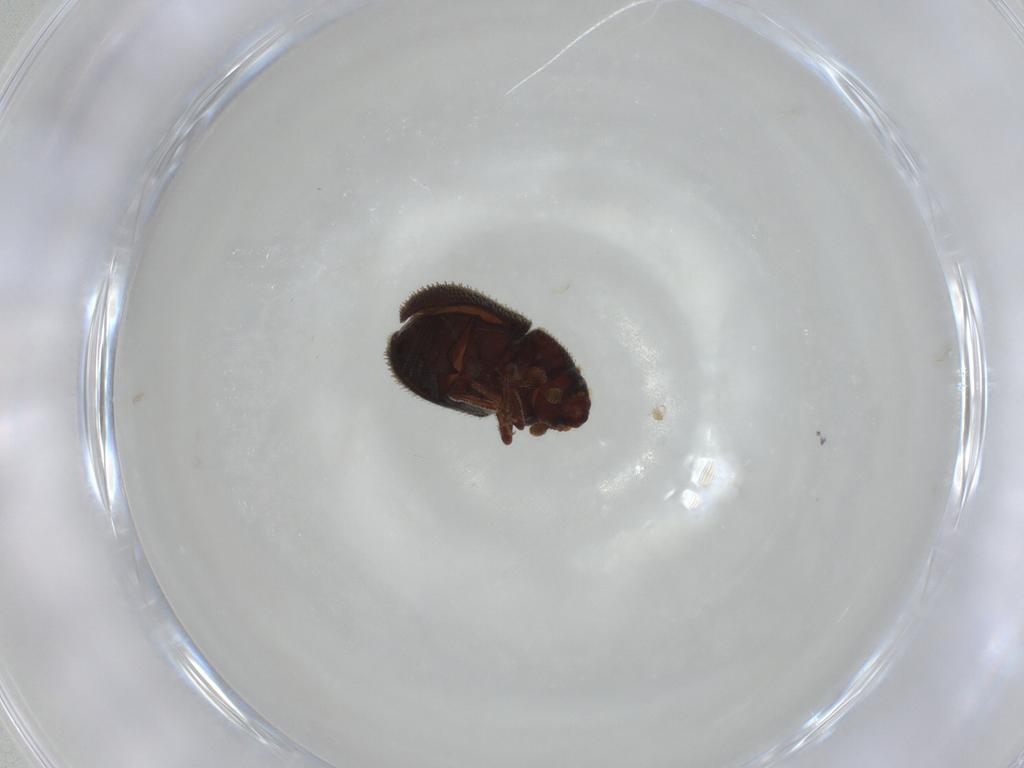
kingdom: Animalia
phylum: Arthropoda
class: Insecta
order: Coleoptera
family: Curculionidae
